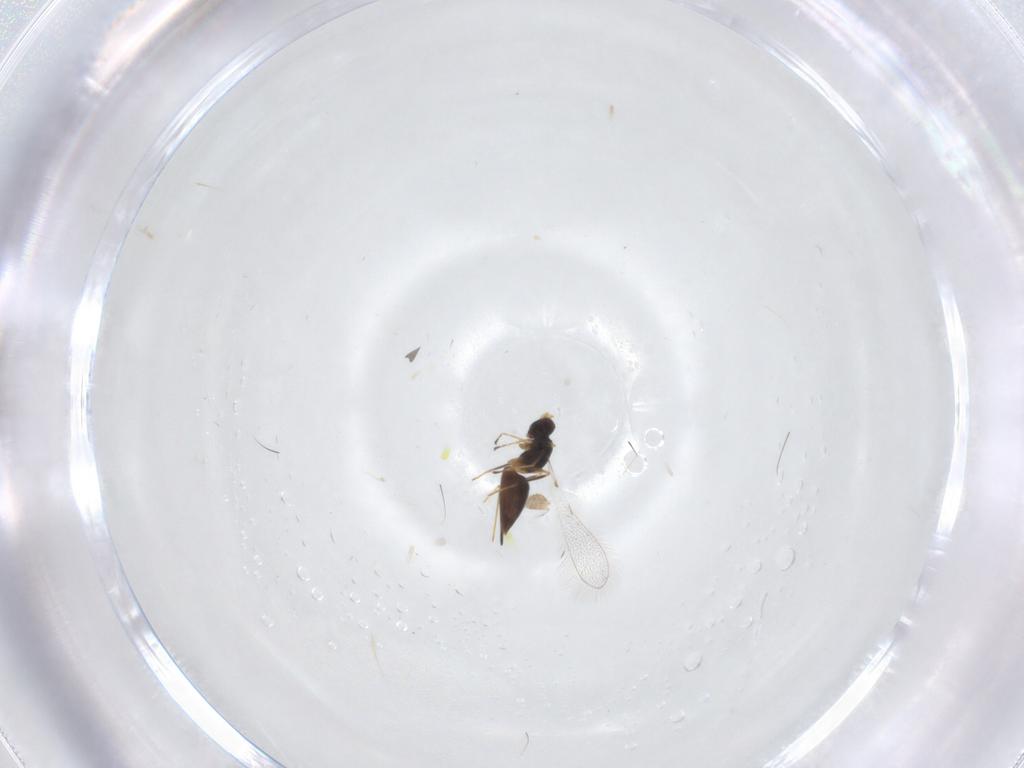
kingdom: Animalia
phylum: Arthropoda
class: Insecta
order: Hymenoptera
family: Mymaridae
